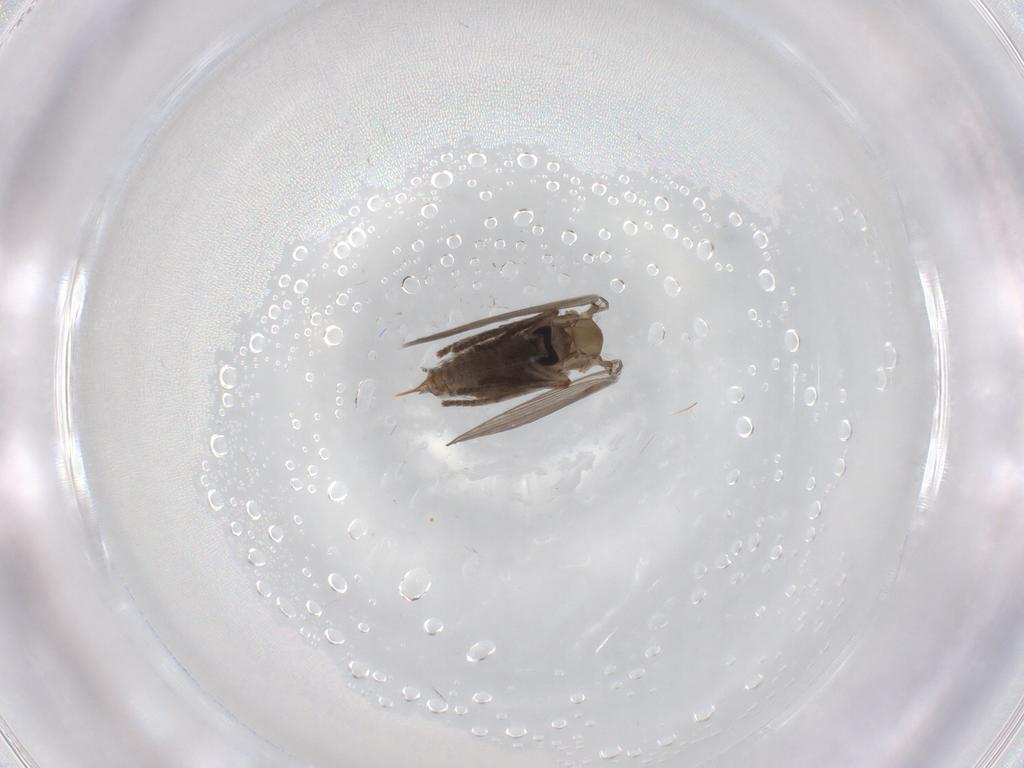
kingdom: Animalia
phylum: Arthropoda
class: Insecta
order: Diptera
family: Psychodidae
